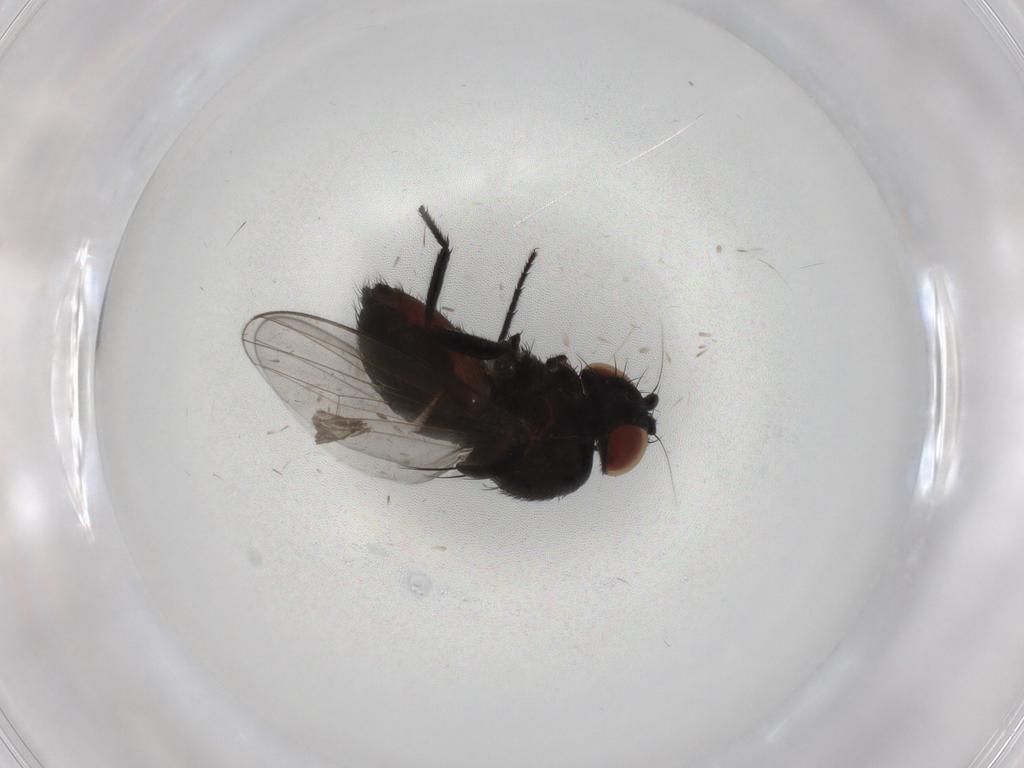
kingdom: Animalia
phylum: Arthropoda
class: Insecta
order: Diptera
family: Milichiidae
